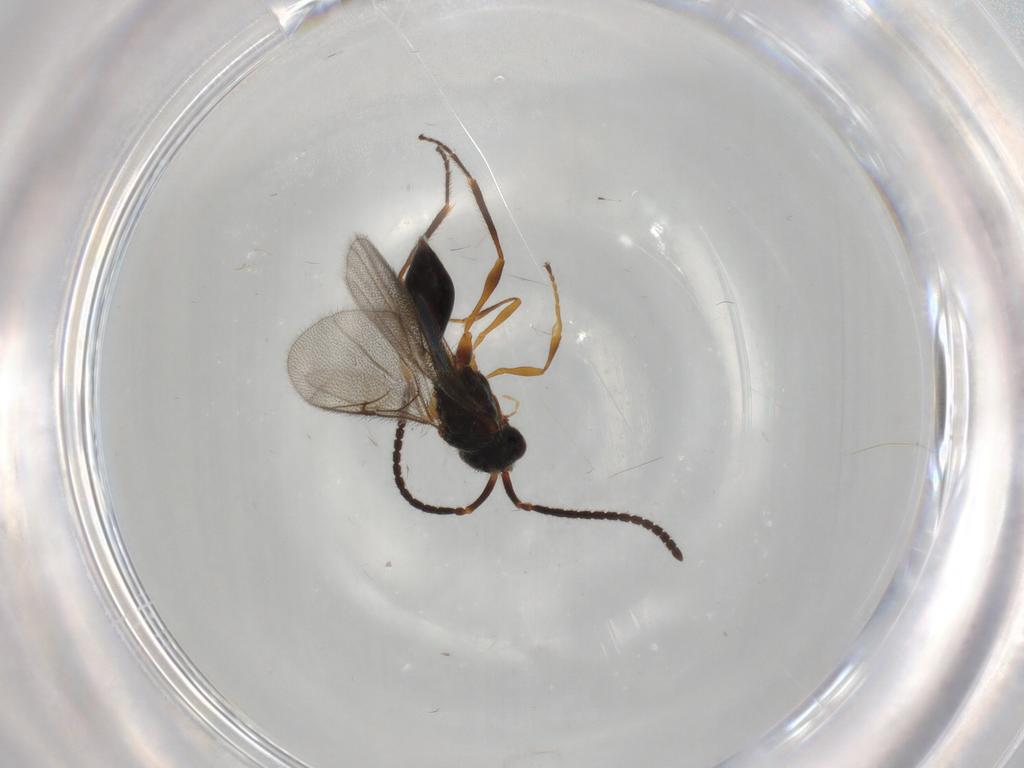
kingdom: Animalia
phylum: Arthropoda
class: Insecta
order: Hymenoptera
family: Diapriidae
